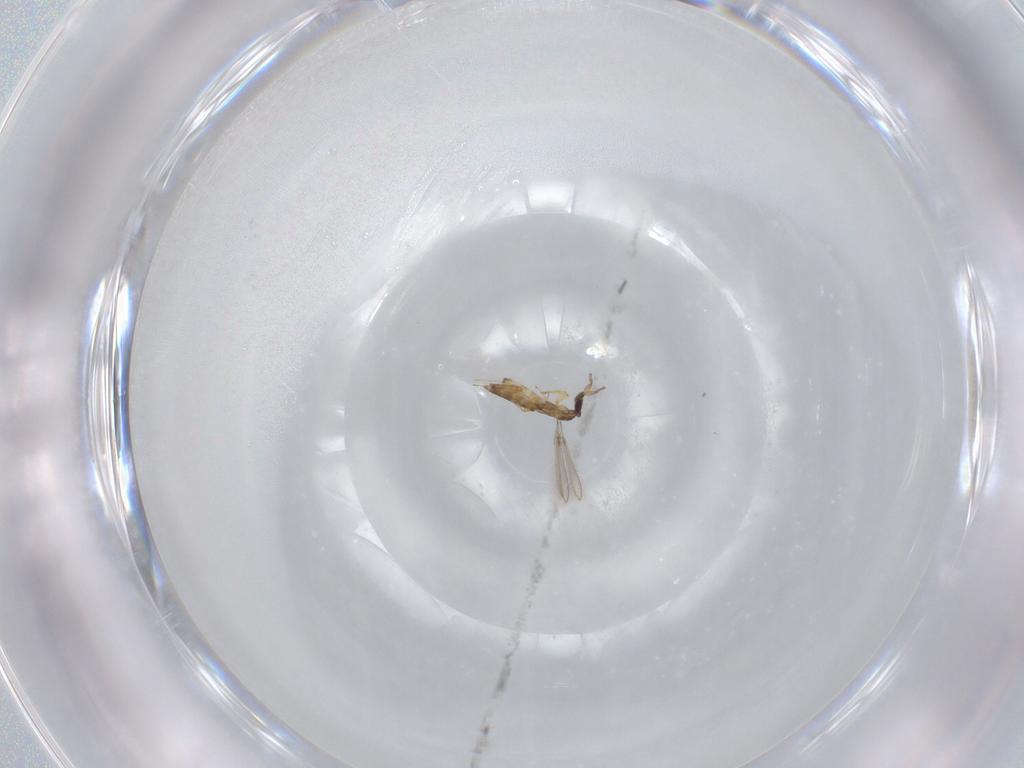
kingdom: Animalia
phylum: Arthropoda
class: Insecta
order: Hymenoptera
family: Mymaridae
